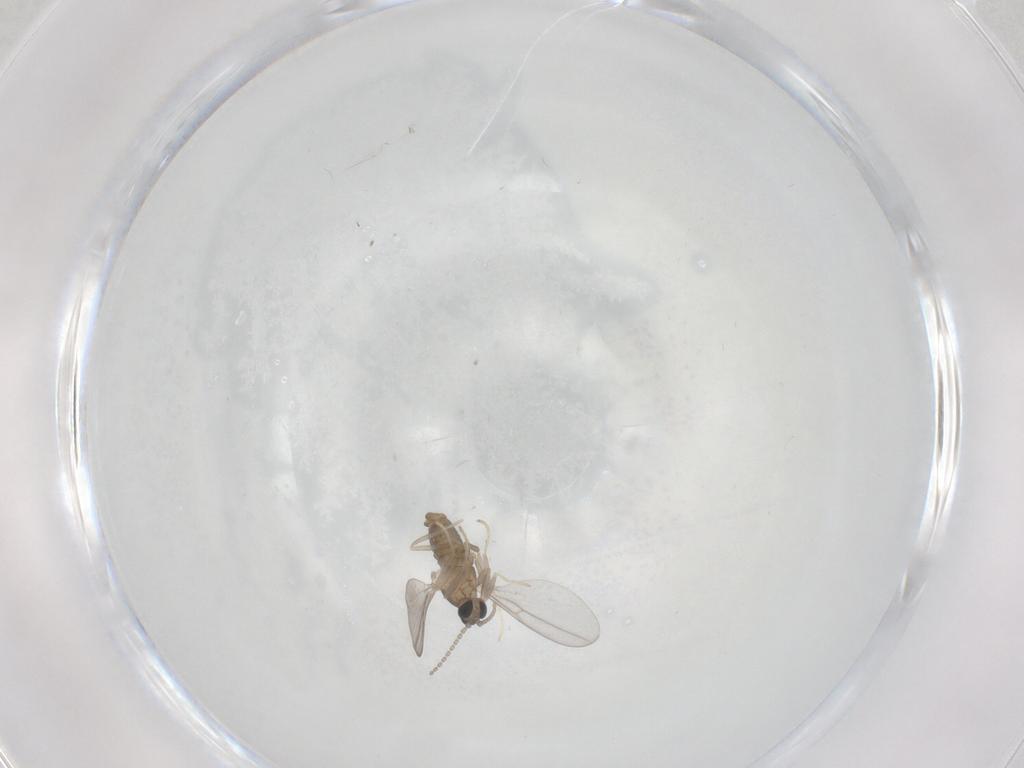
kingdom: Animalia
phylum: Arthropoda
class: Insecta
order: Diptera
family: Cecidomyiidae
